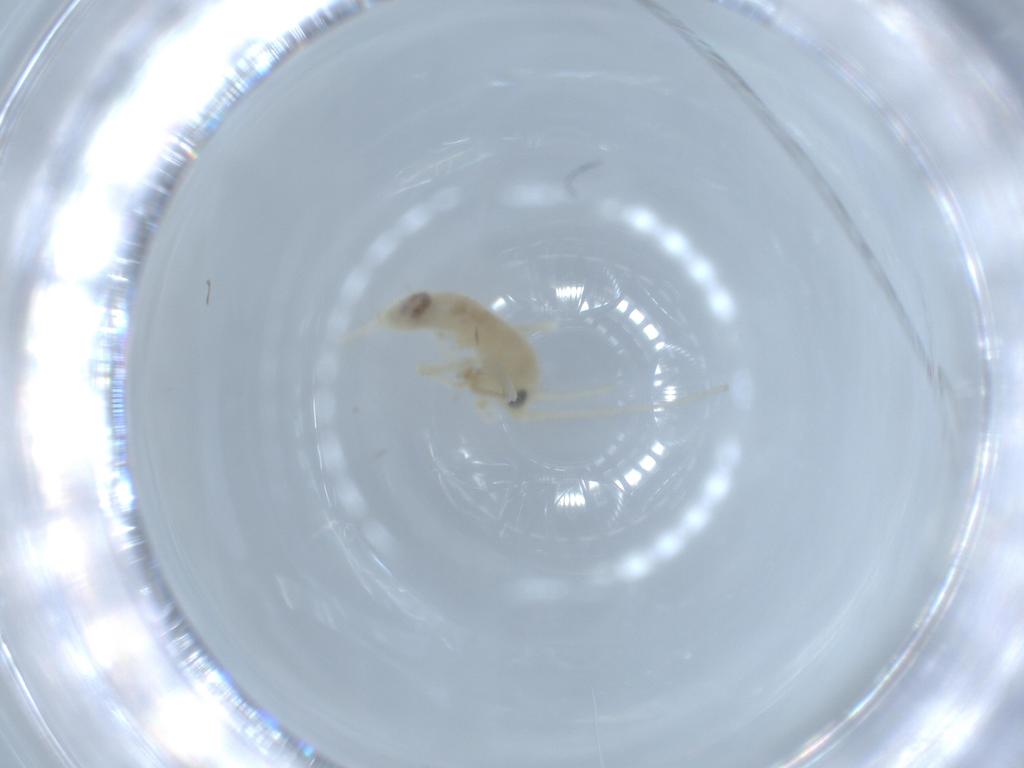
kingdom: Animalia
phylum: Arthropoda
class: Insecta
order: Orthoptera
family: Trigonidiidae
